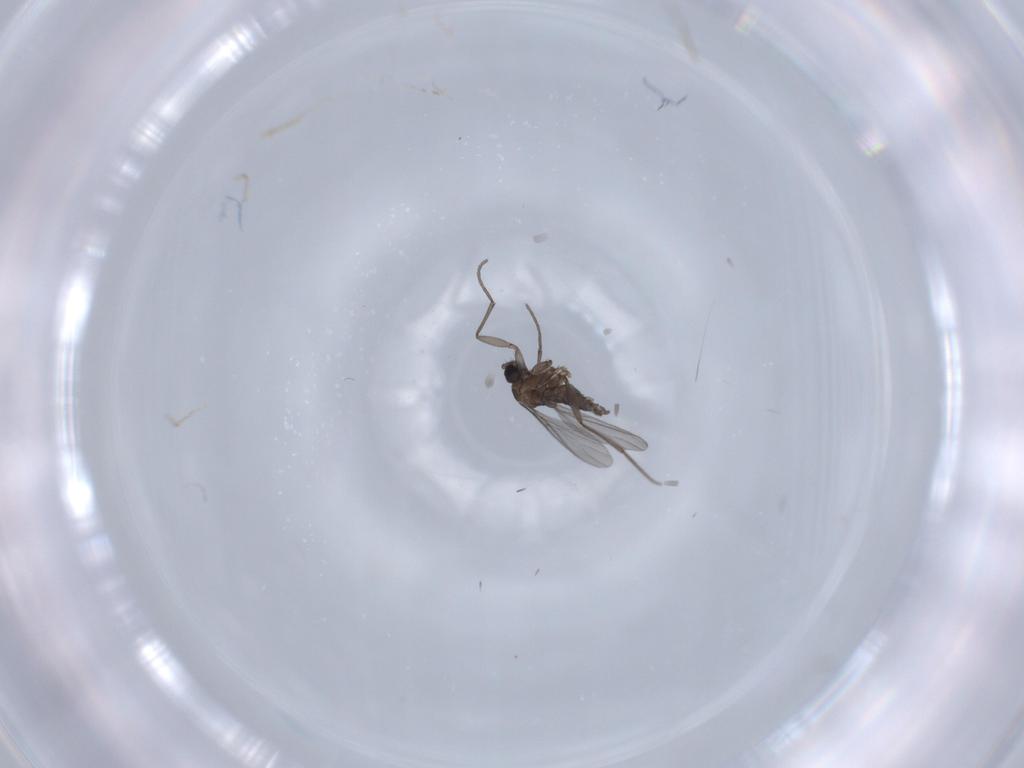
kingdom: Animalia
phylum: Arthropoda
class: Insecta
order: Diptera
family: Sciaridae
